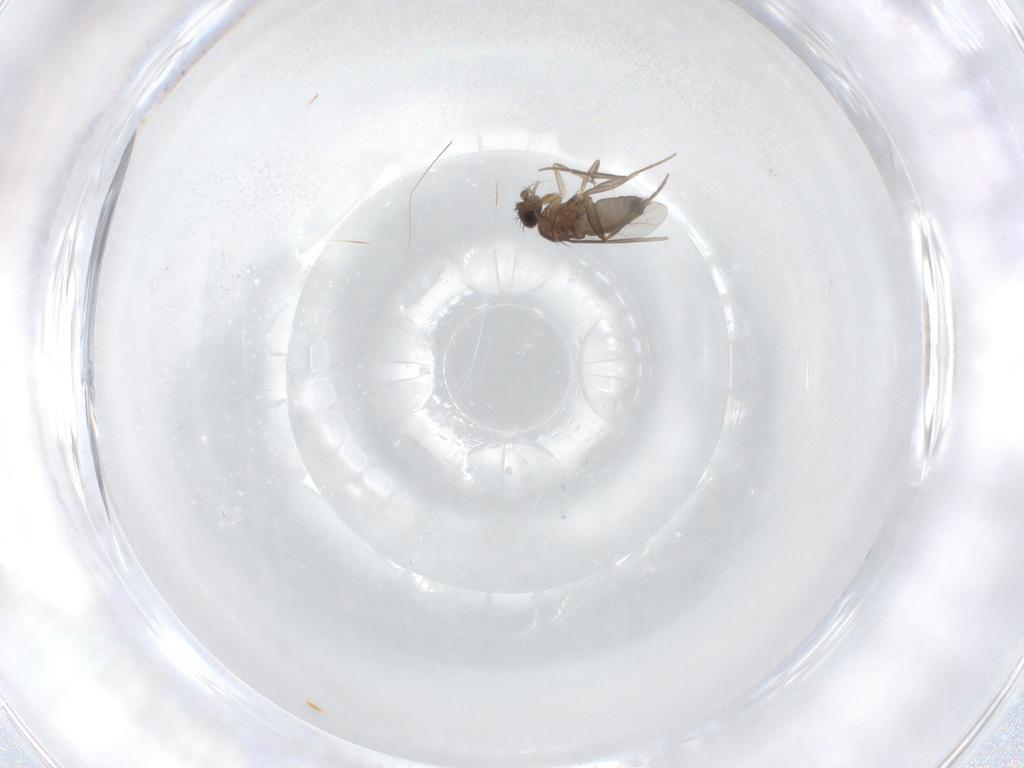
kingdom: Animalia
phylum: Arthropoda
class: Insecta
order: Diptera
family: Phoridae
